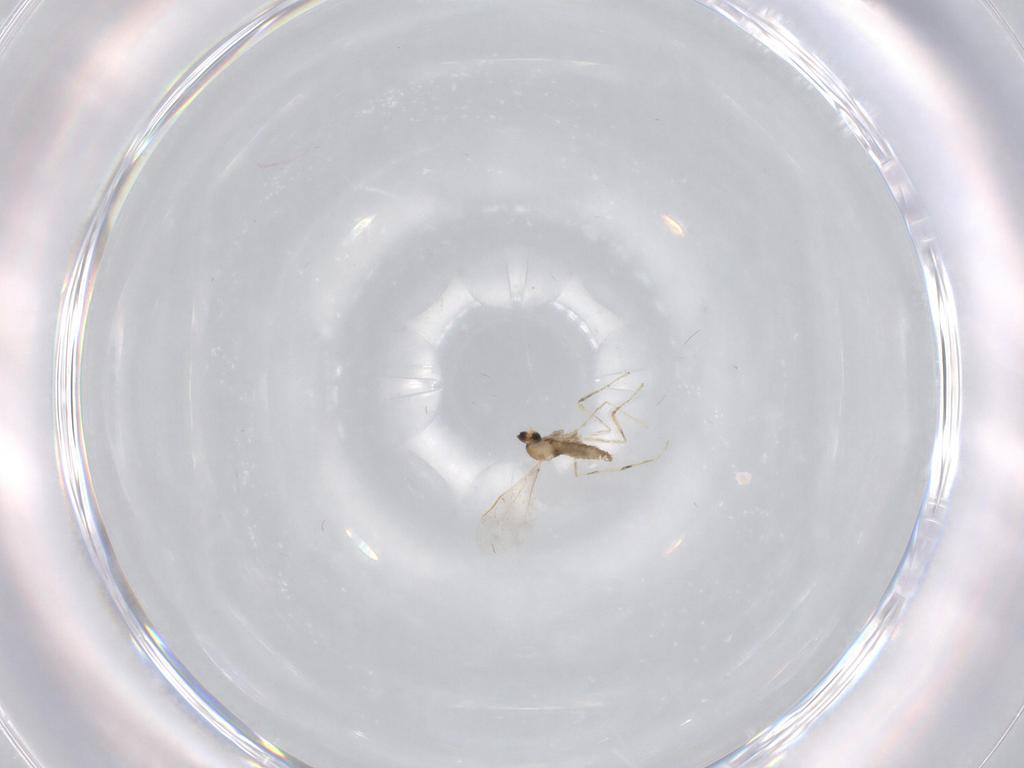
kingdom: Animalia
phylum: Arthropoda
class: Insecta
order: Diptera
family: Cecidomyiidae
